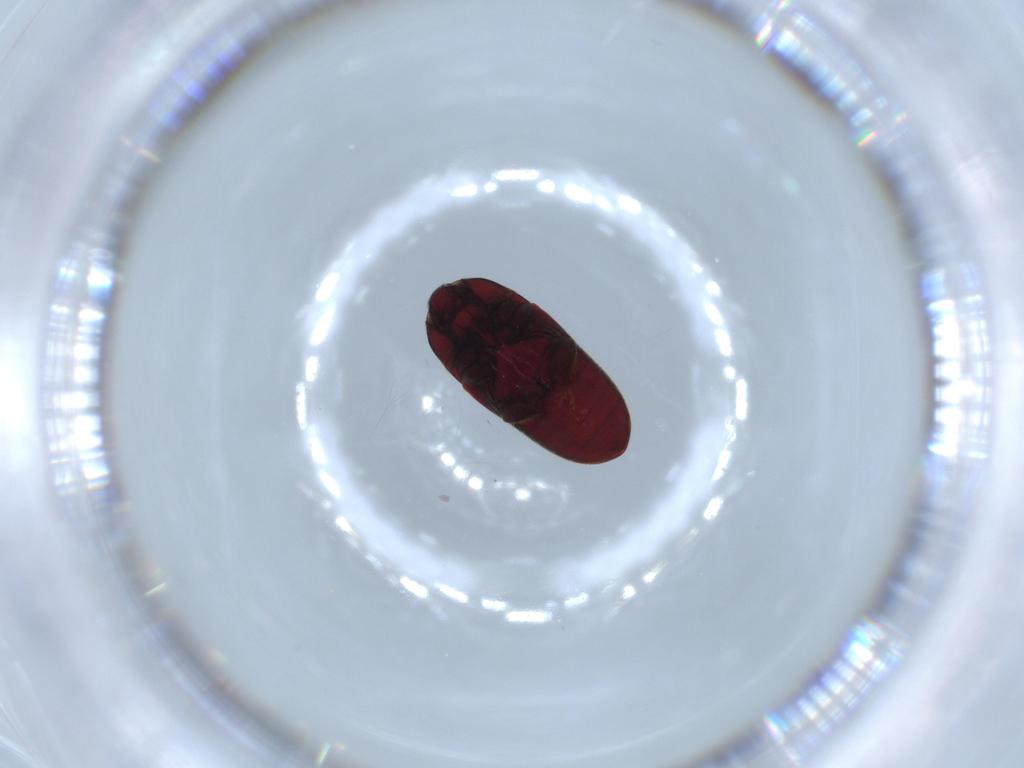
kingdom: Animalia
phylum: Arthropoda
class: Insecta
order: Coleoptera
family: Throscidae
